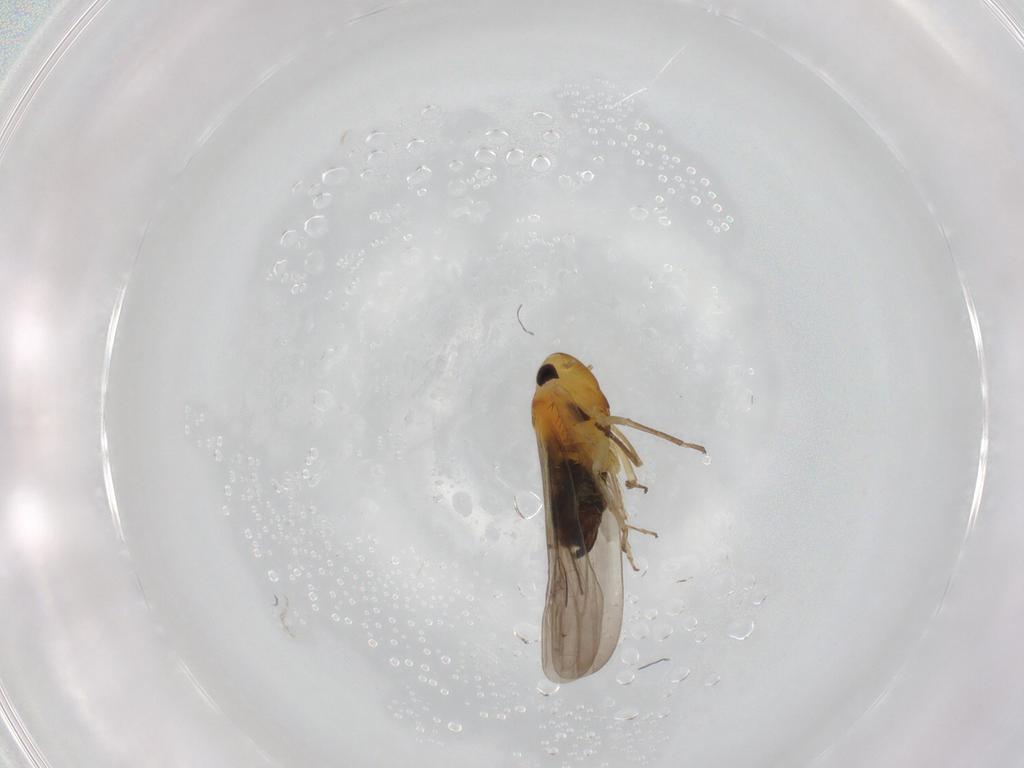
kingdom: Animalia
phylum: Arthropoda
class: Insecta
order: Hemiptera
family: Cicadellidae
